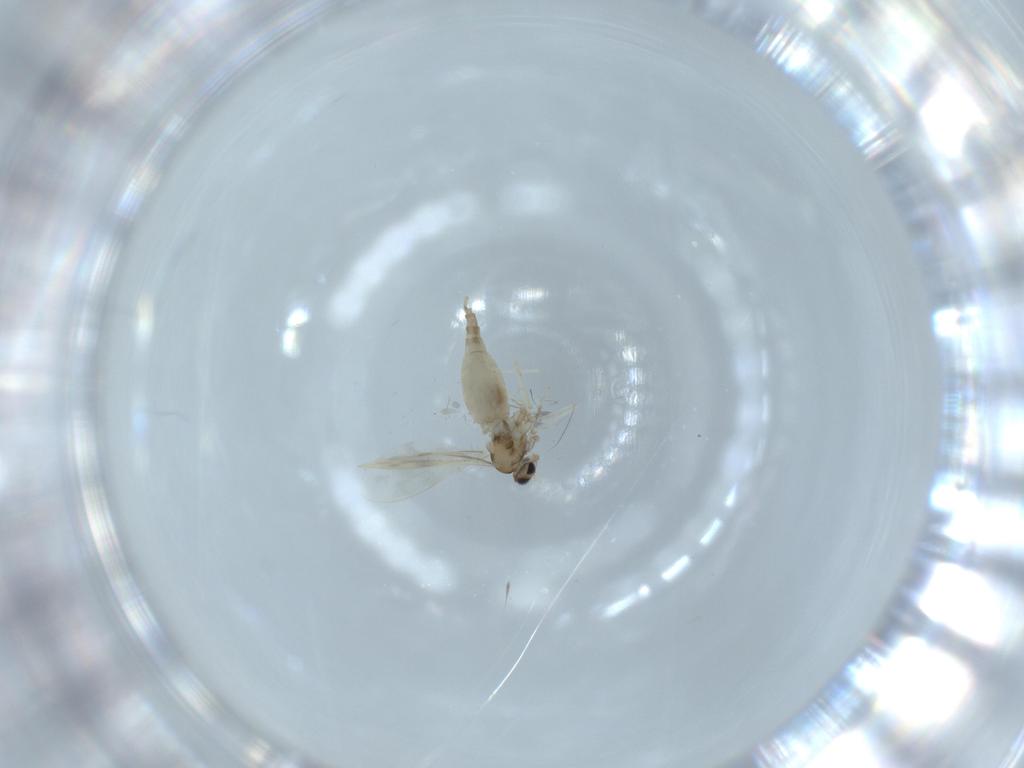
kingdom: Animalia
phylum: Arthropoda
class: Insecta
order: Diptera
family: Cecidomyiidae
